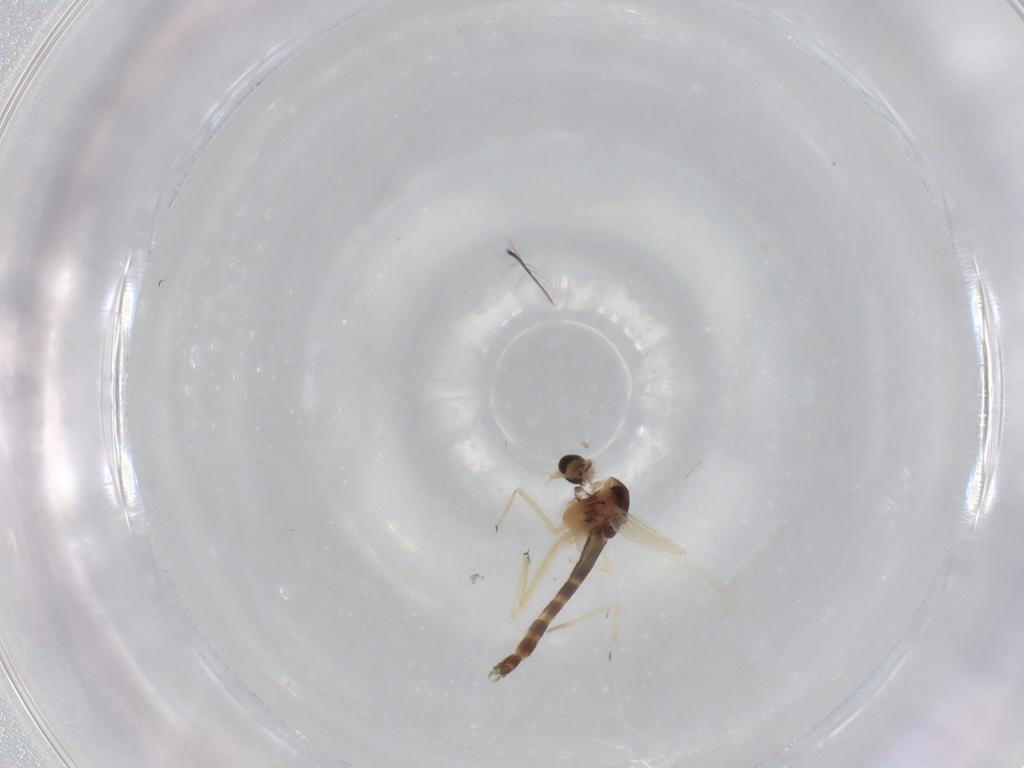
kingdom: Animalia
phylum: Arthropoda
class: Insecta
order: Diptera
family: Chironomidae
